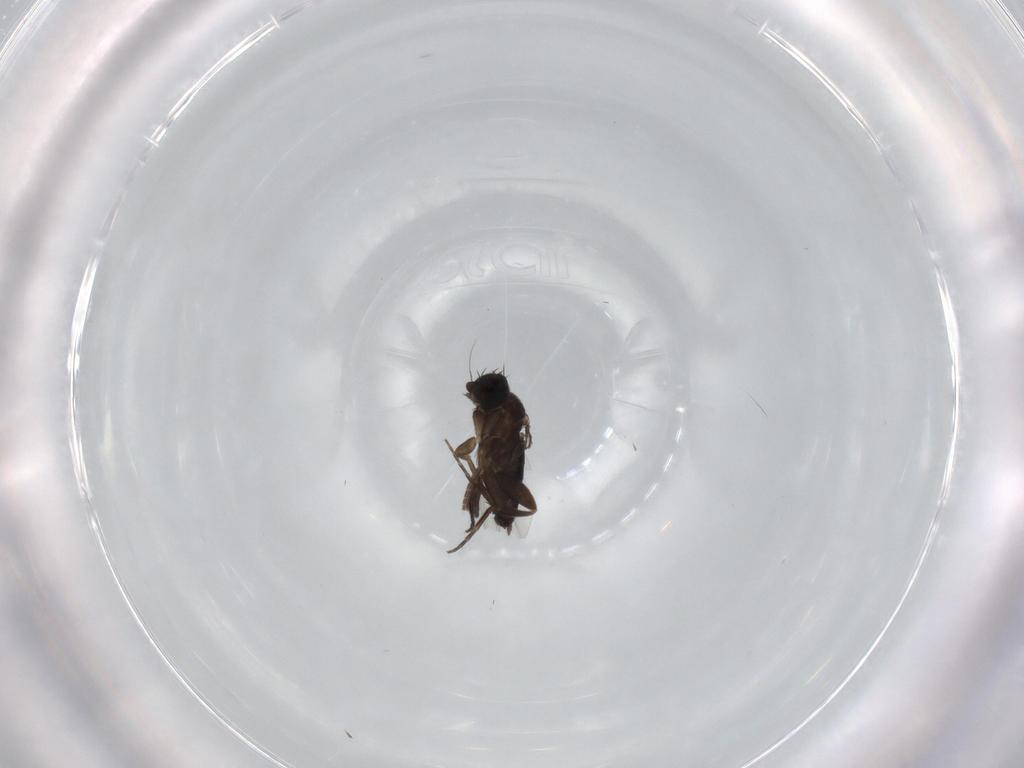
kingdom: Animalia
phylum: Arthropoda
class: Insecta
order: Diptera
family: Phoridae
